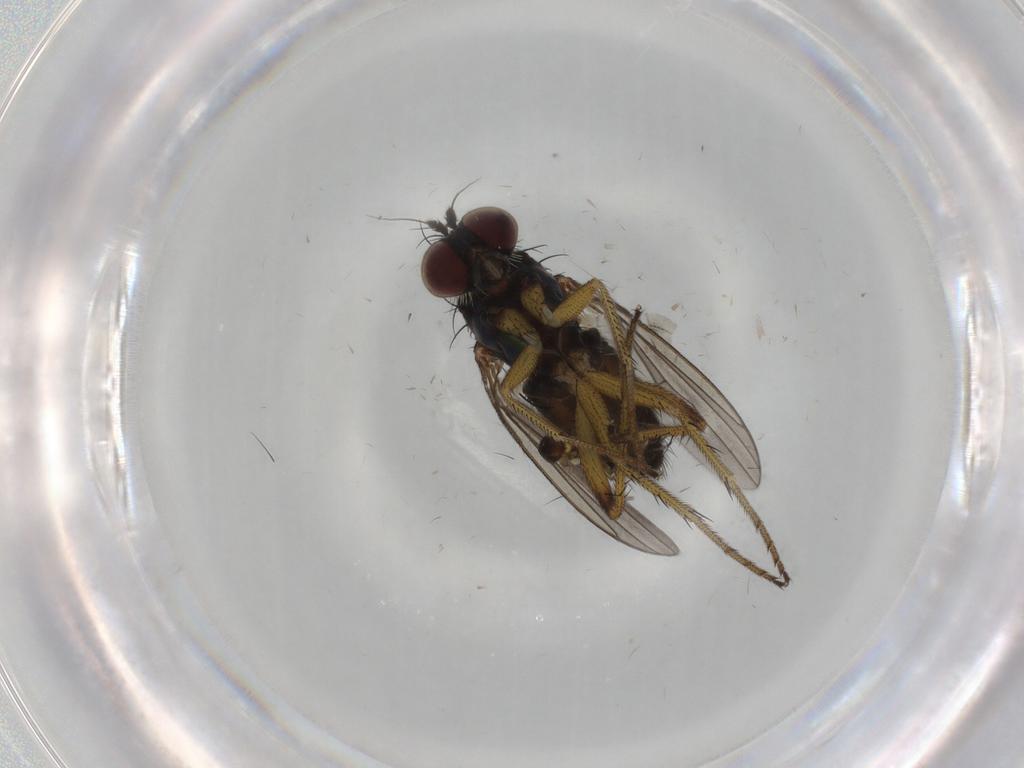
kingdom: Animalia
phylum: Arthropoda
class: Insecta
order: Diptera
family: Dolichopodidae
